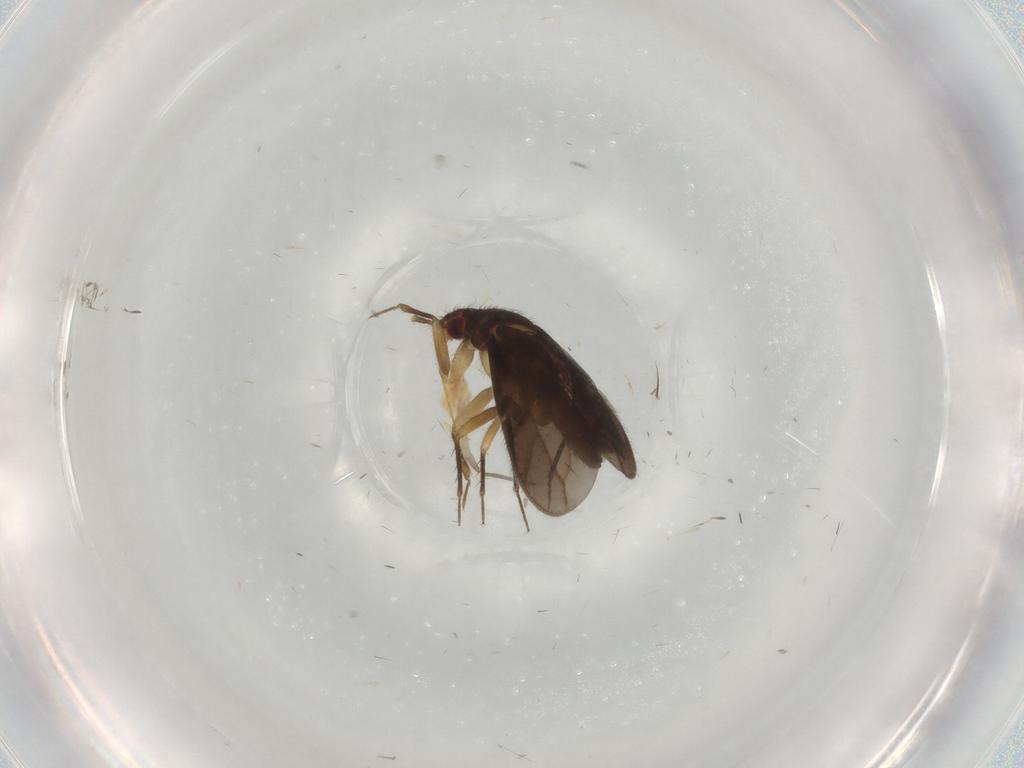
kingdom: Animalia
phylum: Arthropoda
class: Insecta
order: Hemiptera
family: Ceratocombidae
